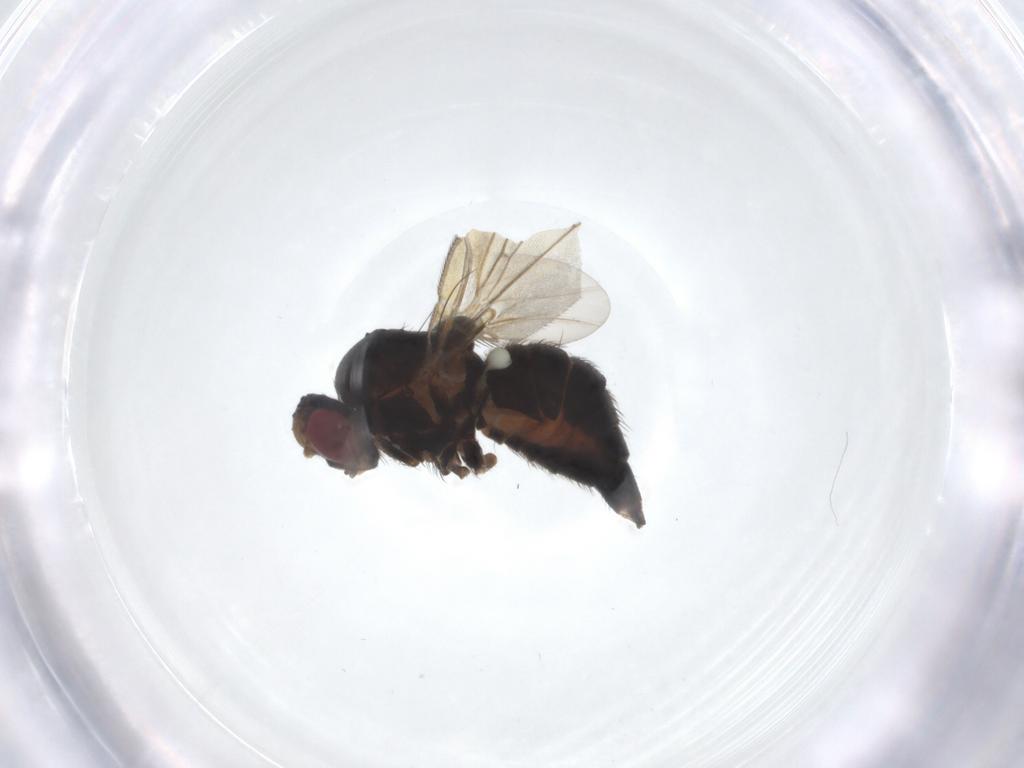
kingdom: Animalia
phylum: Arthropoda
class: Insecta
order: Diptera
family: Agromyzidae
